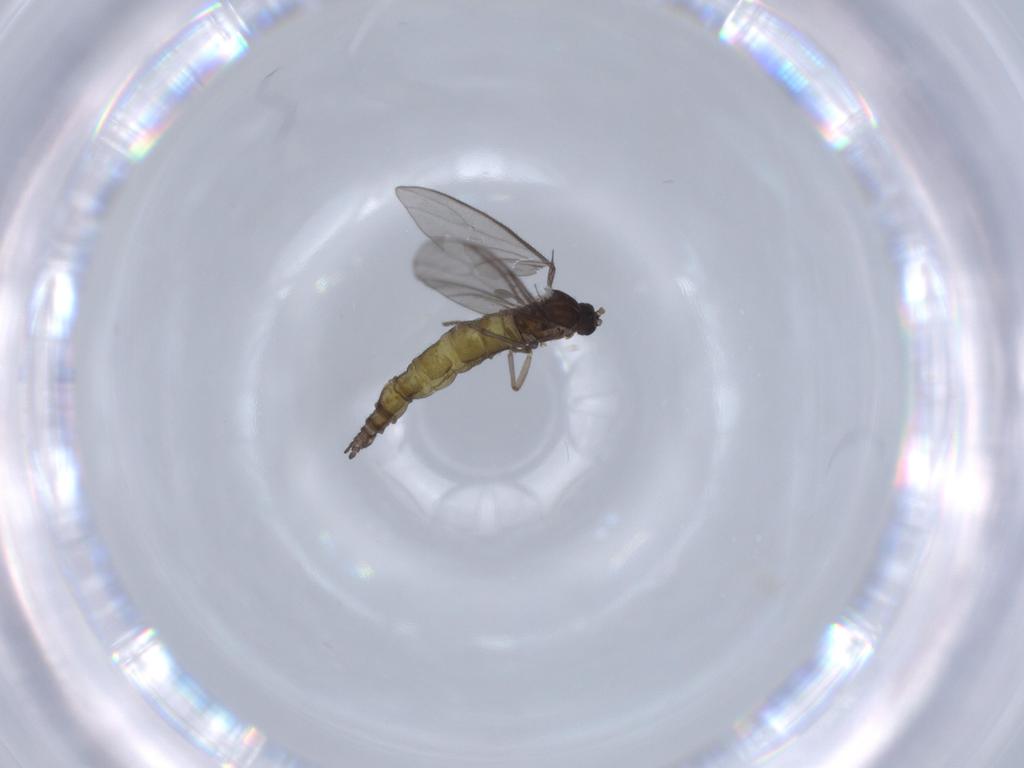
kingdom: Animalia
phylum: Arthropoda
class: Insecta
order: Diptera
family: Sciaridae
